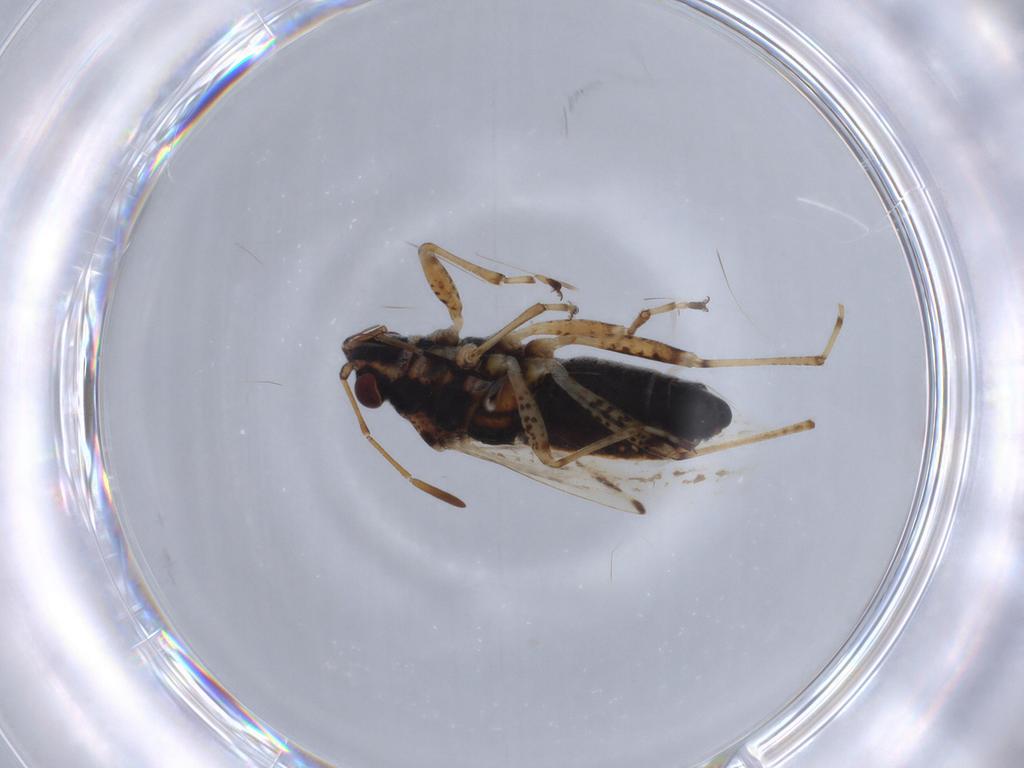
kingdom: Animalia
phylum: Arthropoda
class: Insecta
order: Hemiptera
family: Lygaeidae
